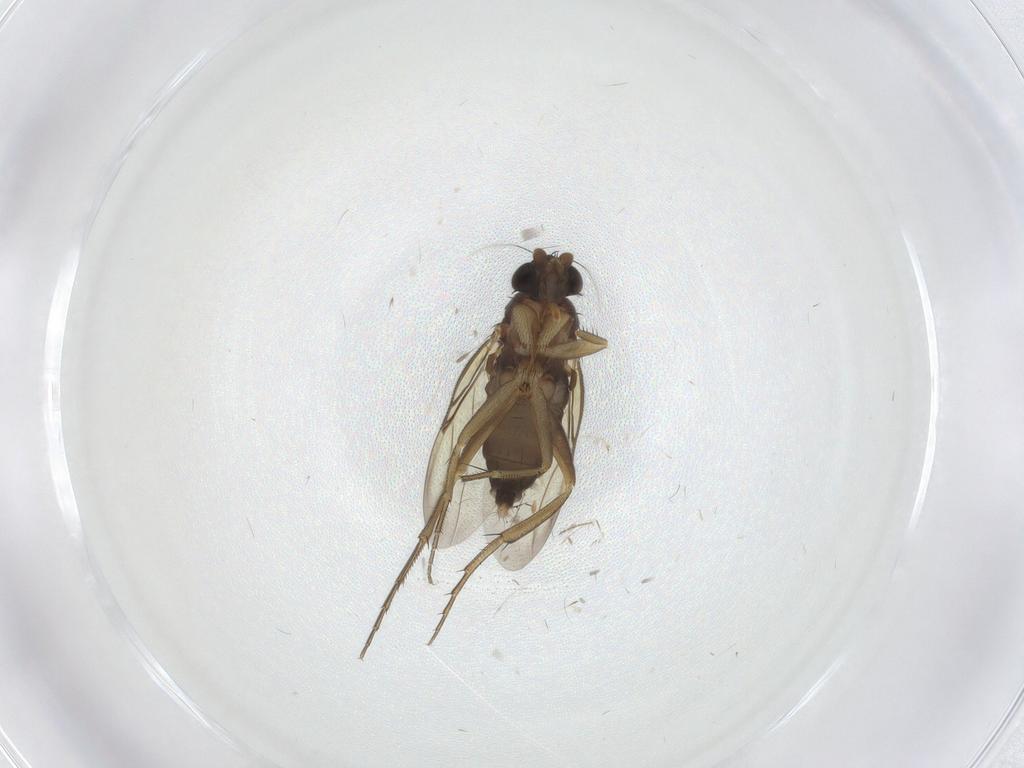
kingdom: Animalia
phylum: Arthropoda
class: Insecta
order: Diptera
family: Phoridae
